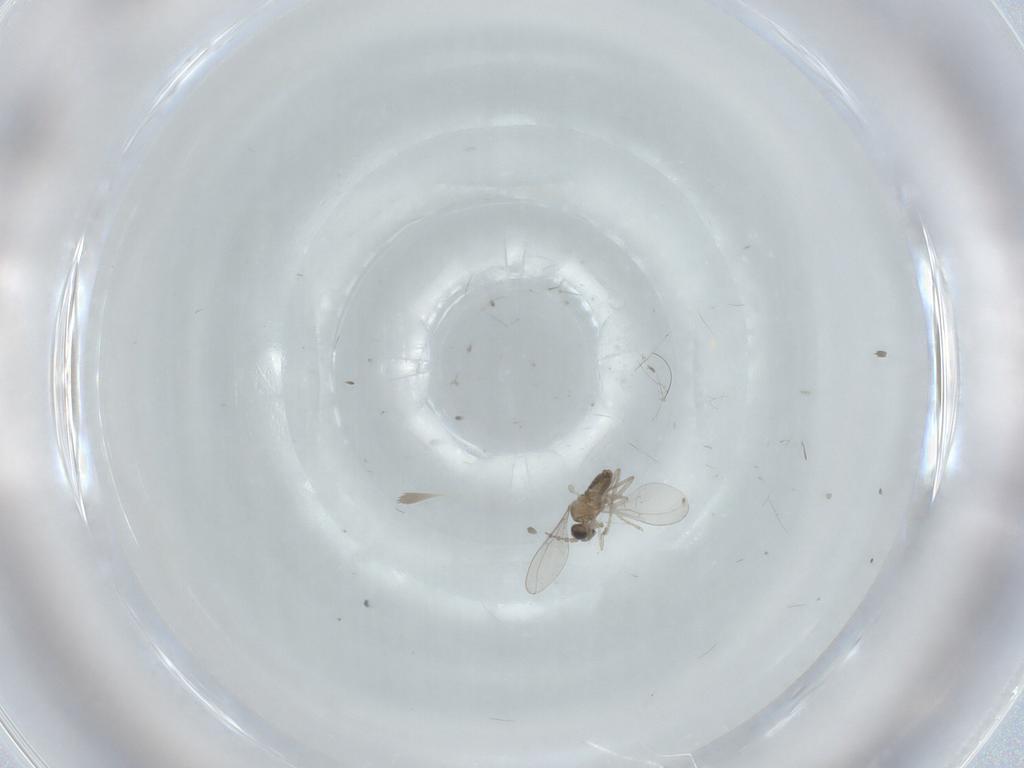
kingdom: Animalia
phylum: Arthropoda
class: Insecta
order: Diptera
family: Cecidomyiidae
